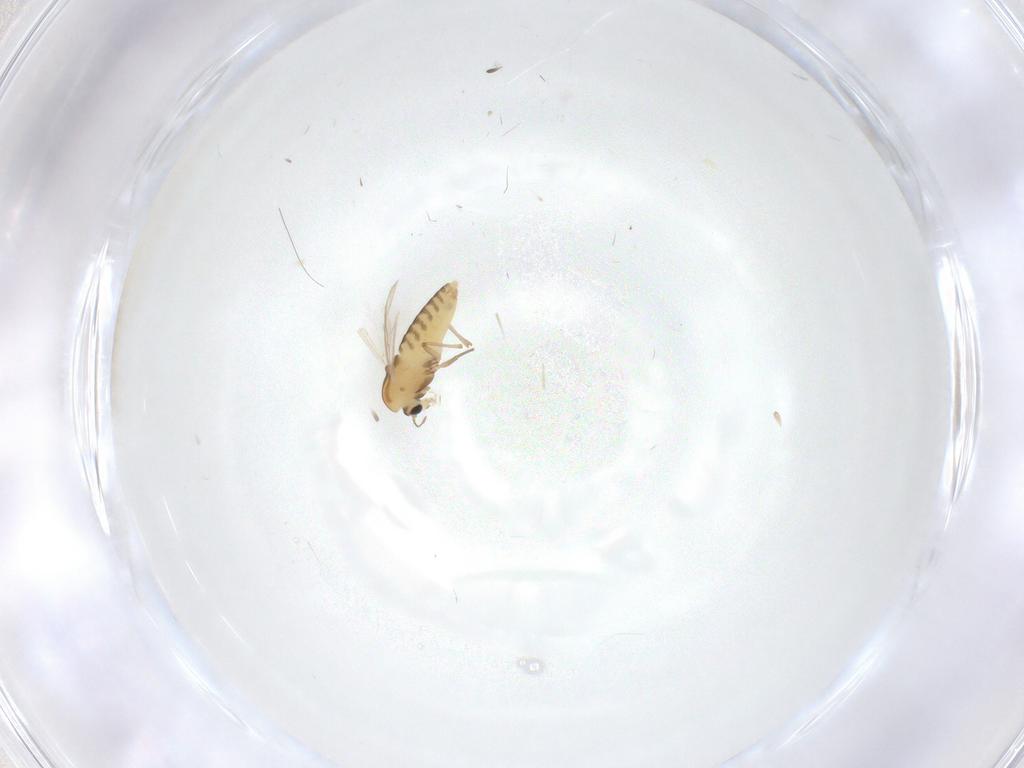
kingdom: Animalia
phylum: Arthropoda
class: Insecta
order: Diptera
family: Chironomidae
